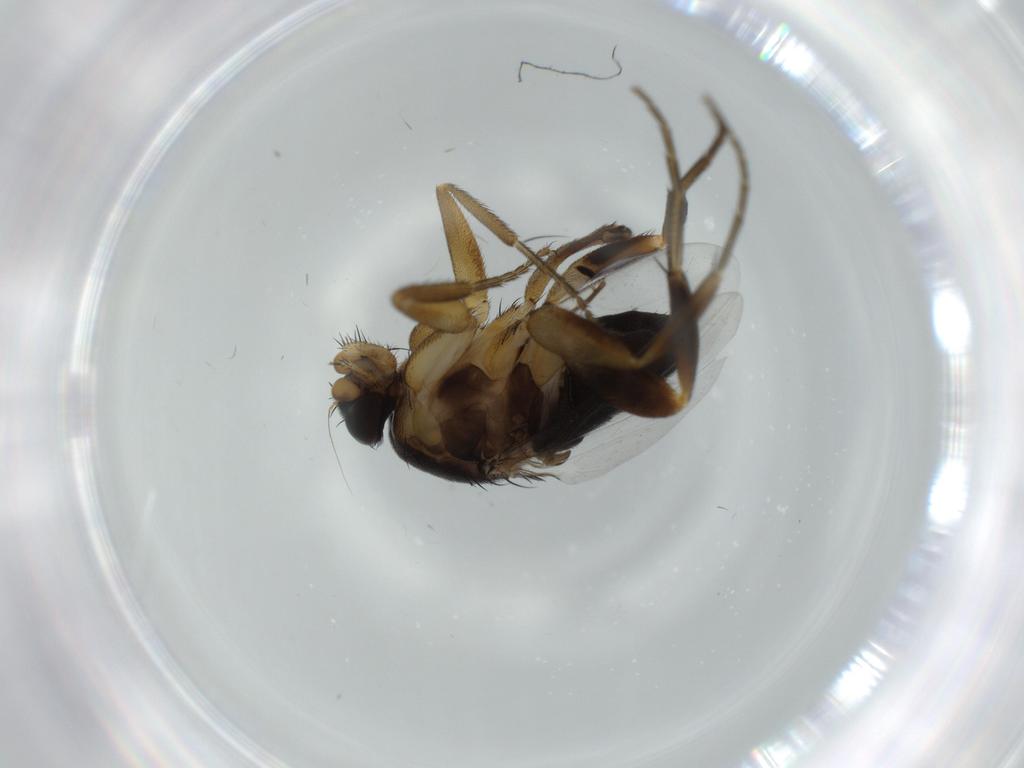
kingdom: Animalia
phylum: Arthropoda
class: Insecta
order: Diptera
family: Phoridae
